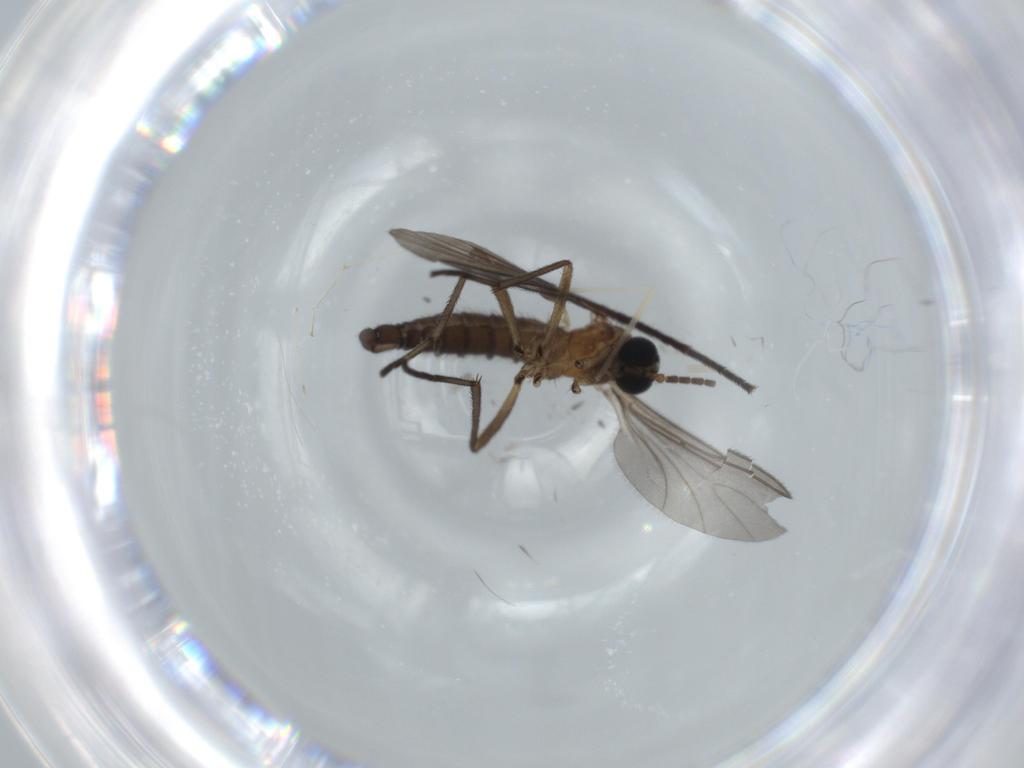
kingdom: Animalia
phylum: Arthropoda
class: Insecta
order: Diptera
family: Sciaridae
